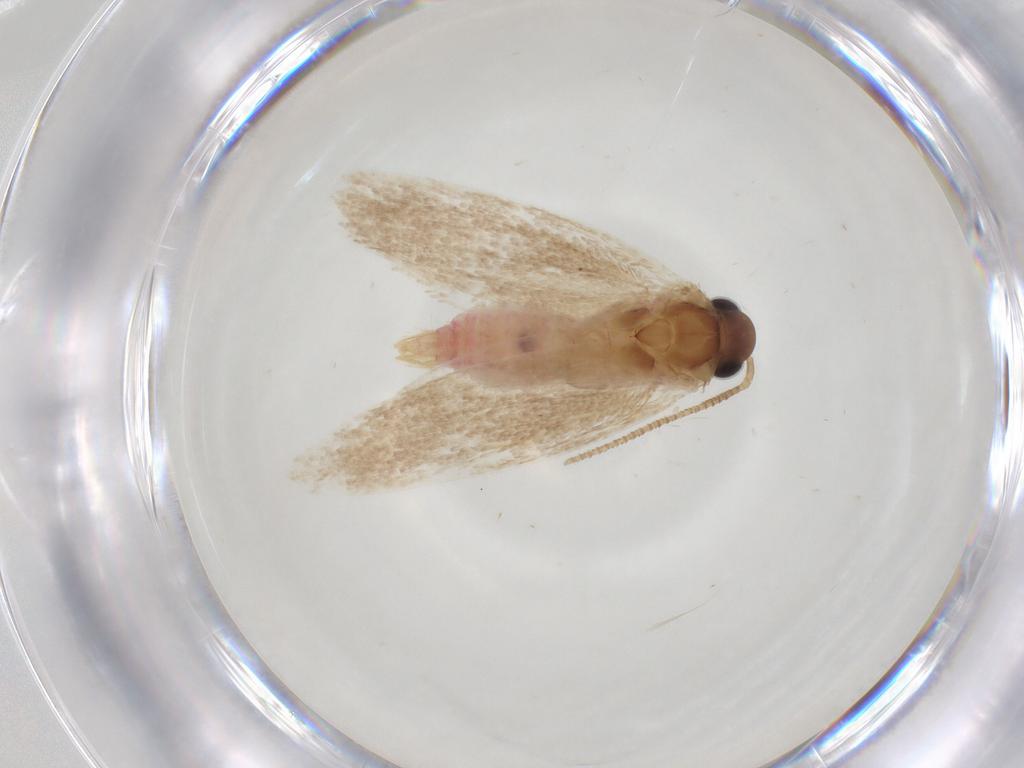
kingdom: Animalia
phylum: Arthropoda
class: Insecta
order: Lepidoptera
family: Autostichidae
